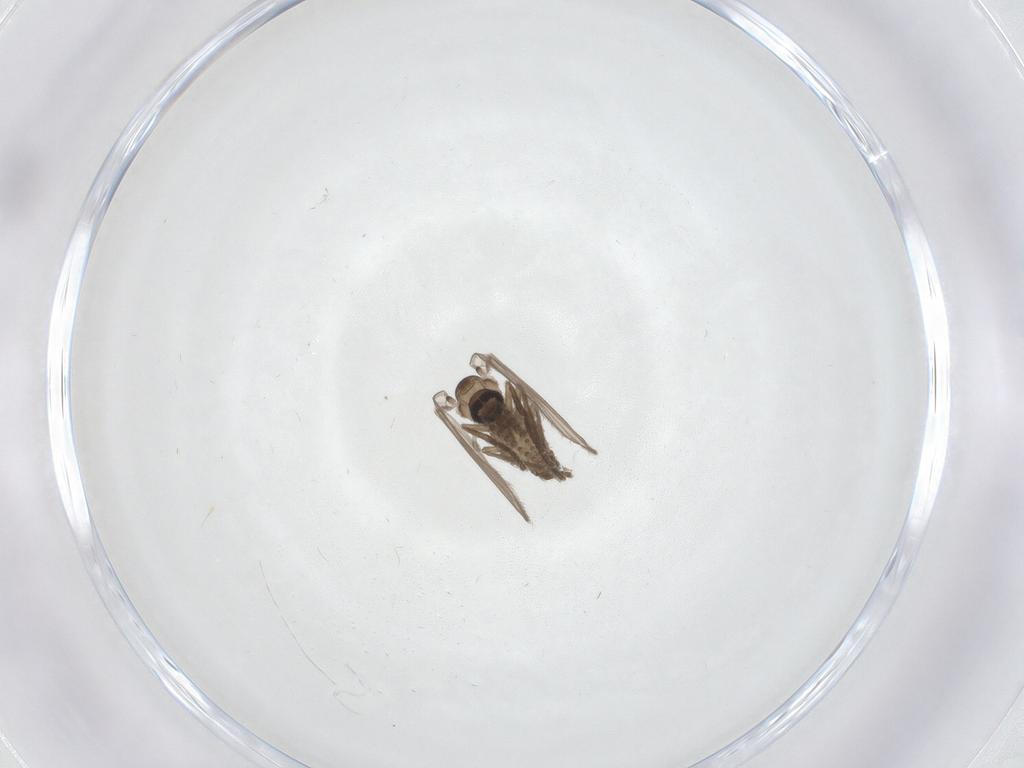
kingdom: Animalia
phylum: Arthropoda
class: Insecta
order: Diptera
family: Psychodidae
